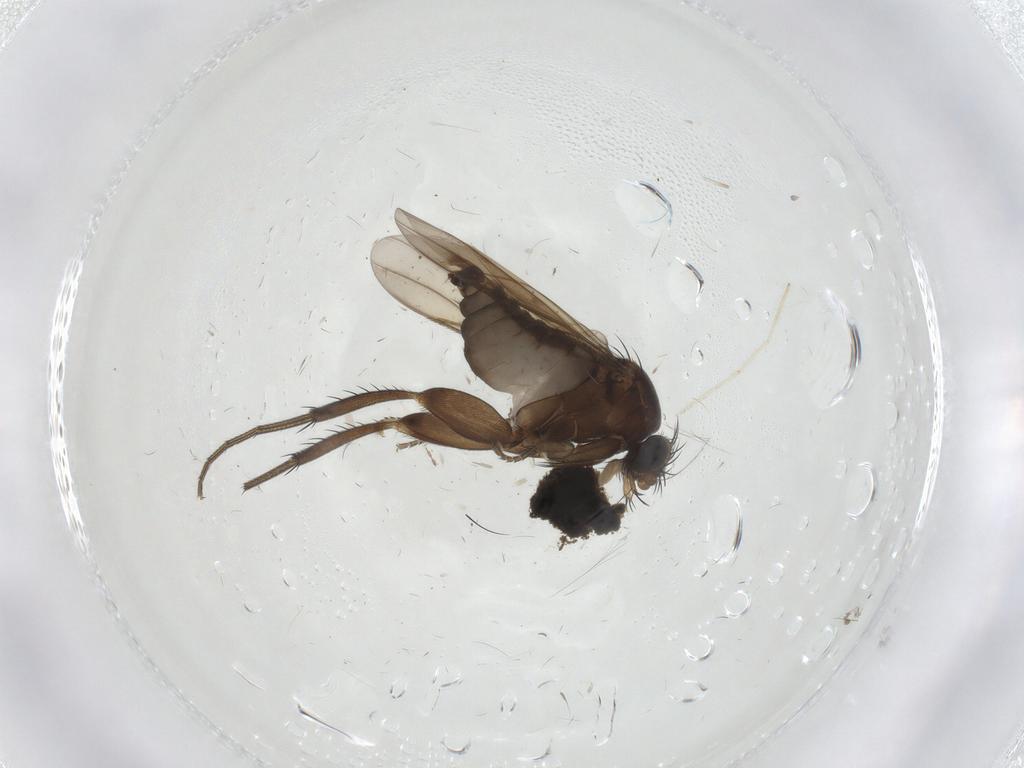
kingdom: Animalia
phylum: Arthropoda
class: Insecta
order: Diptera
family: Phoridae
